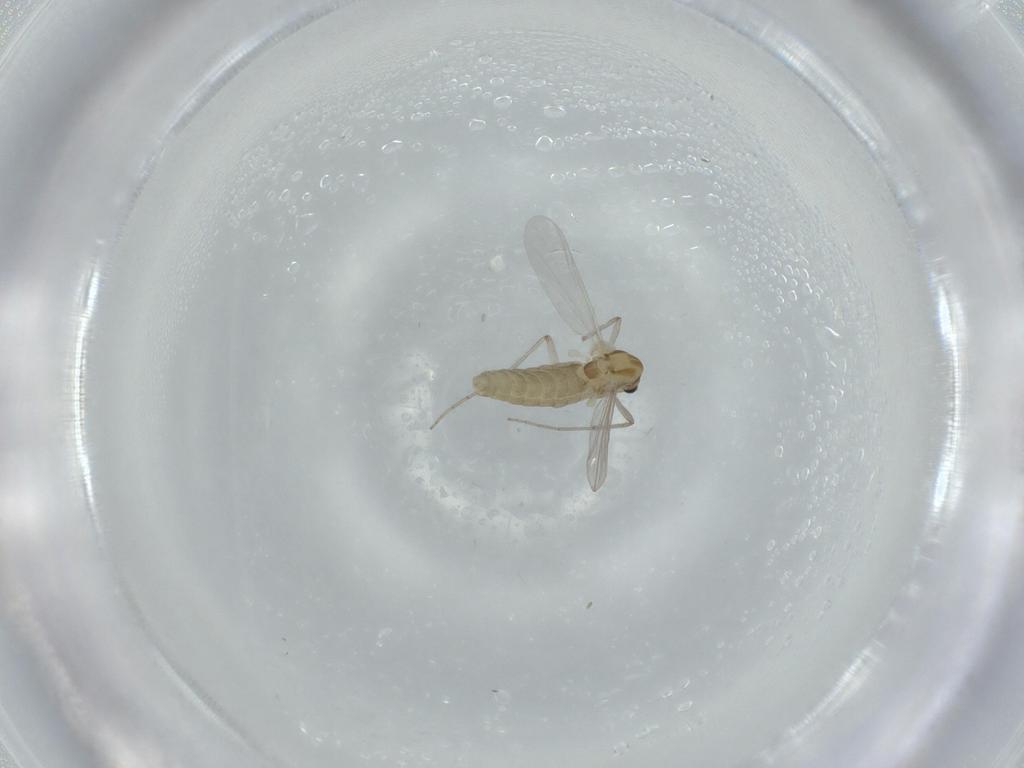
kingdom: Animalia
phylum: Arthropoda
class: Insecta
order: Diptera
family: Chironomidae
